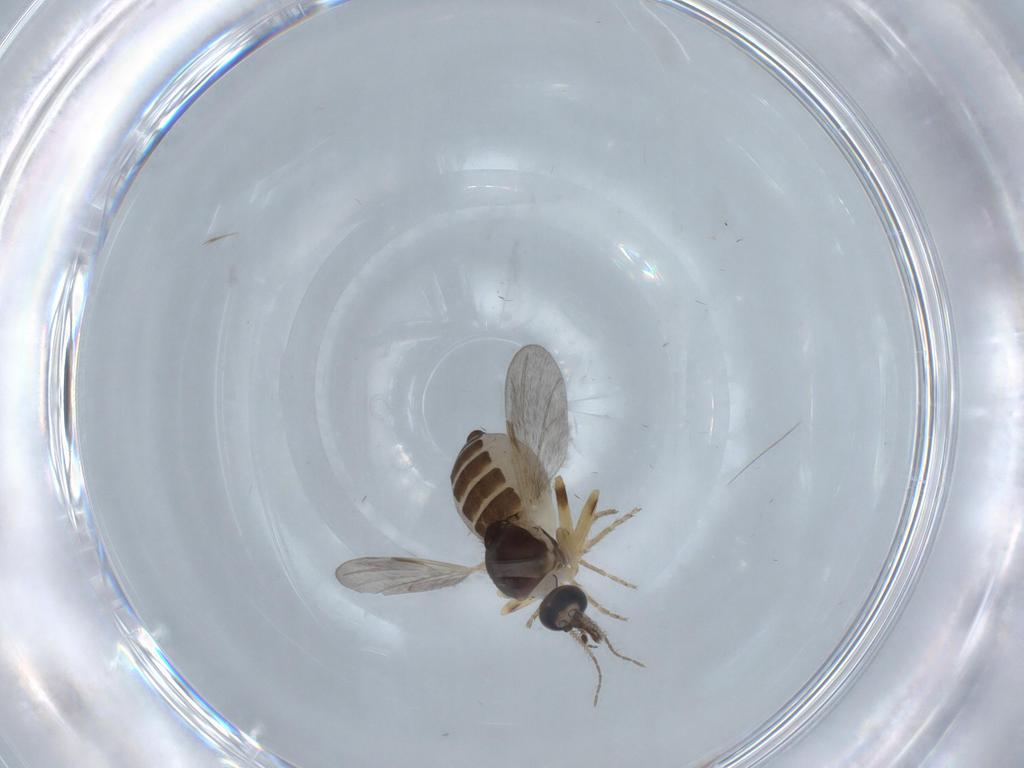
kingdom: Animalia
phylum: Arthropoda
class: Insecta
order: Diptera
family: Ceratopogonidae
